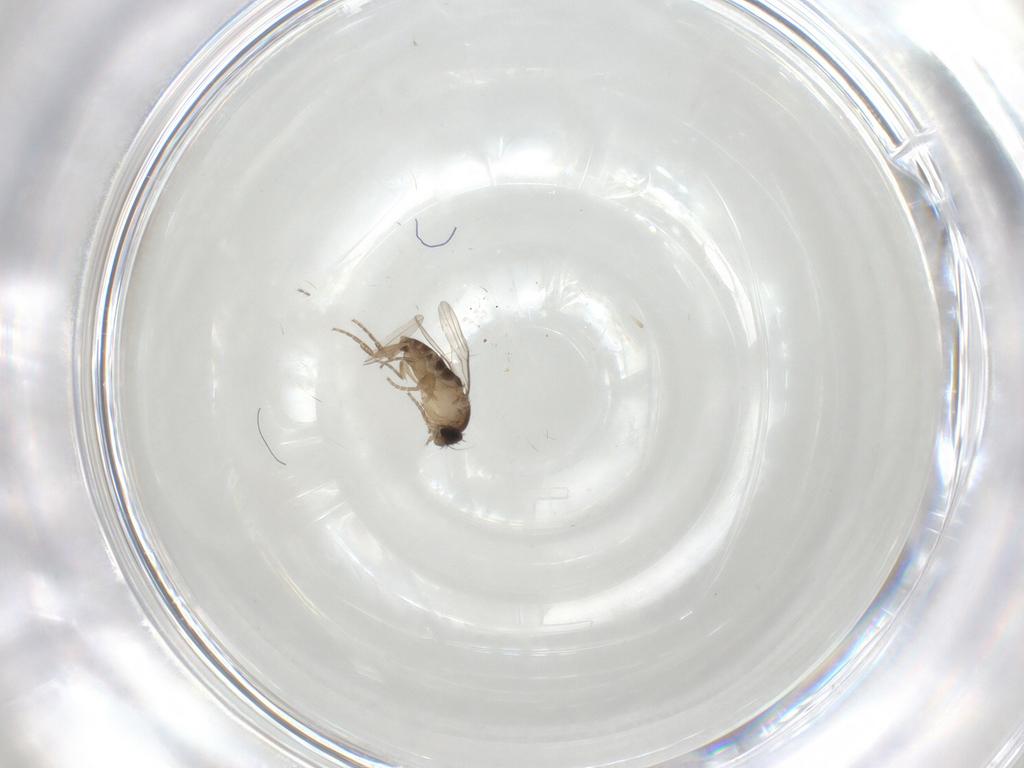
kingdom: Animalia
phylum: Arthropoda
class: Insecta
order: Diptera
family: Phoridae
